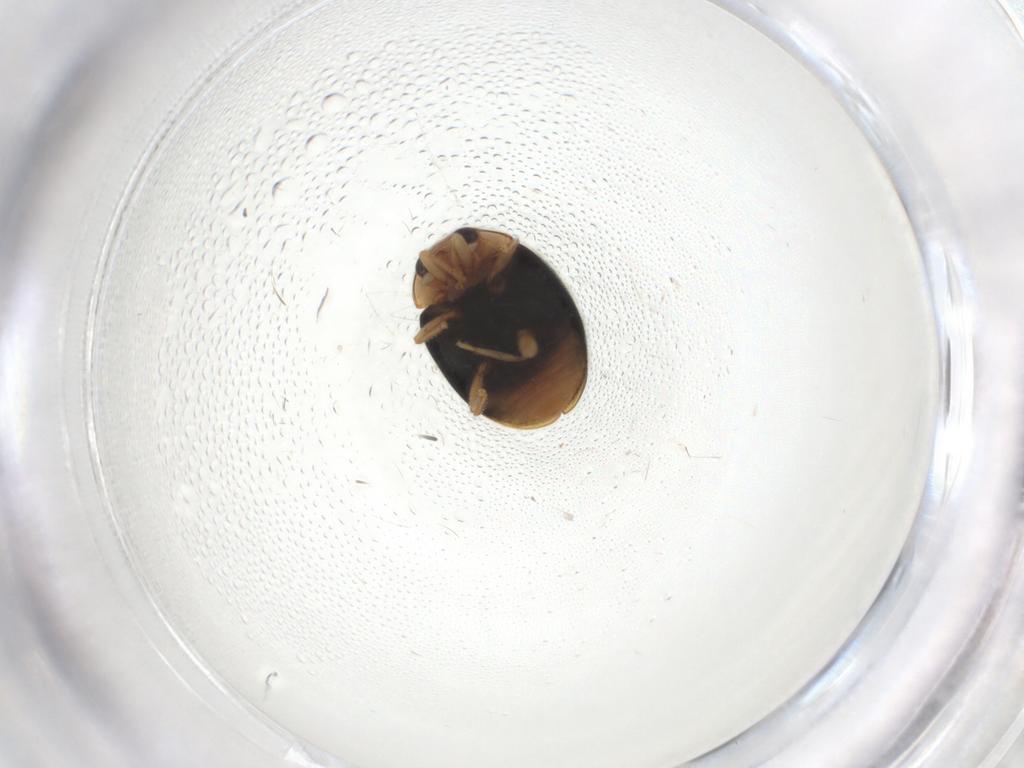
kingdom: Animalia
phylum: Arthropoda
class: Insecta
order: Coleoptera
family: Coccinellidae
